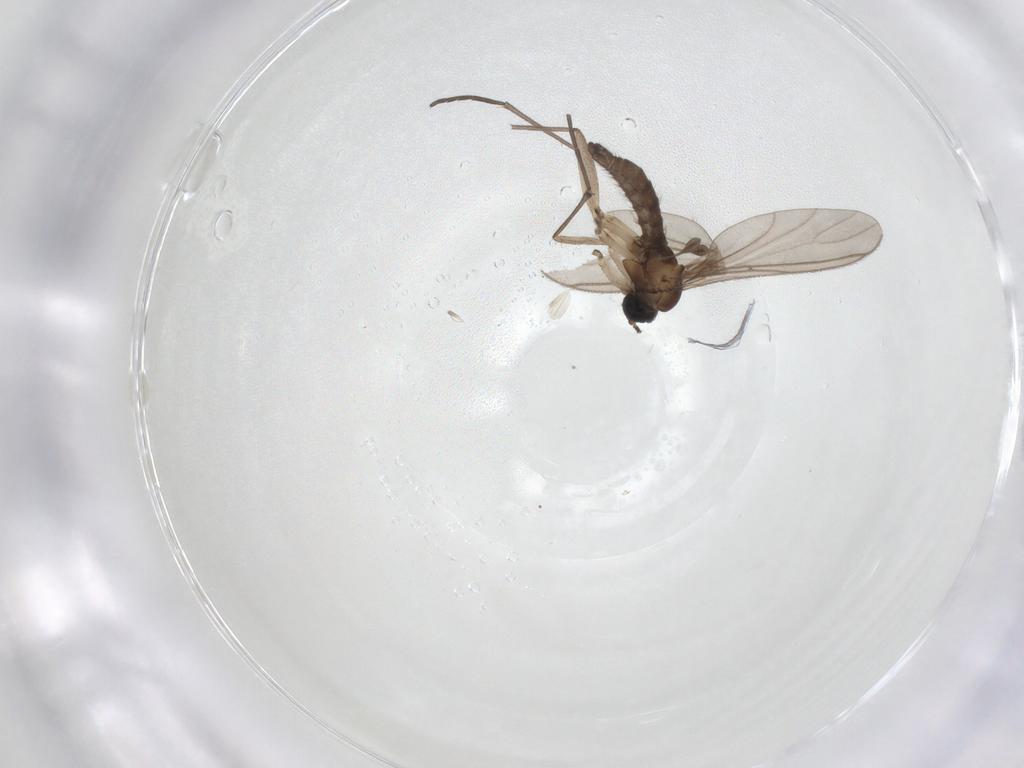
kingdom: Animalia
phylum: Arthropoda
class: Insecta
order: Diptera
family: Sciaridae
